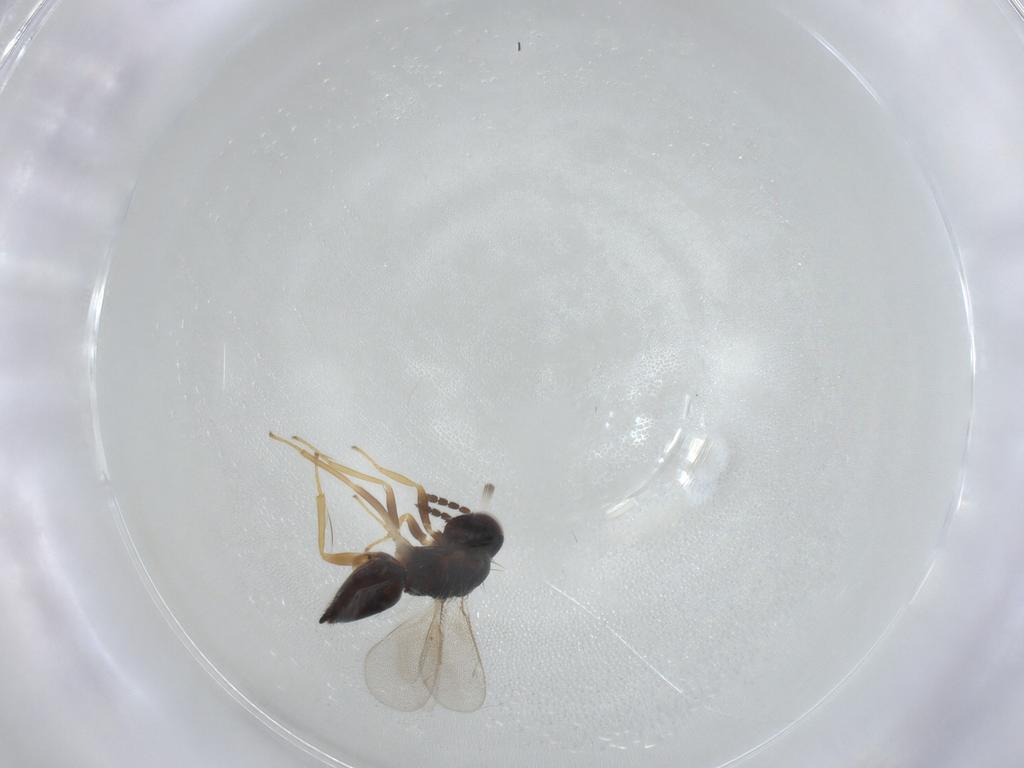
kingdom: Animalia
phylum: Arthropoda
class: Insecta
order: Hymenoptera
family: Eulophidae
